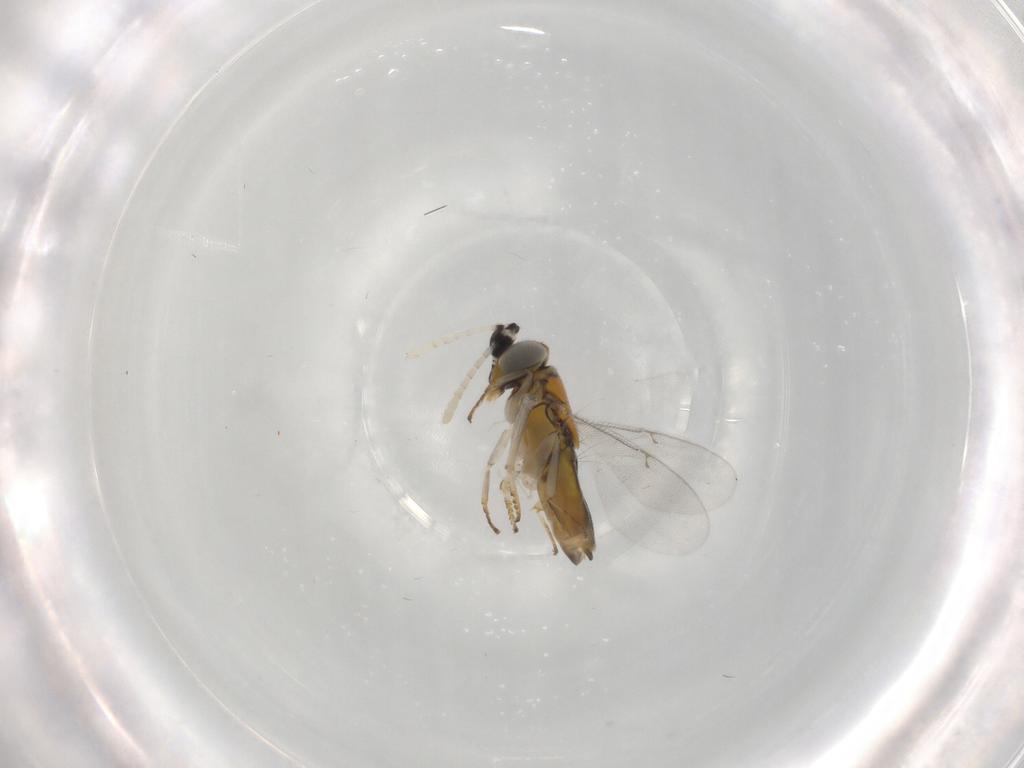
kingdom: Animalia
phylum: Arthropoda
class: Insecta
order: Hymenoptera
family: Encyrtidae
